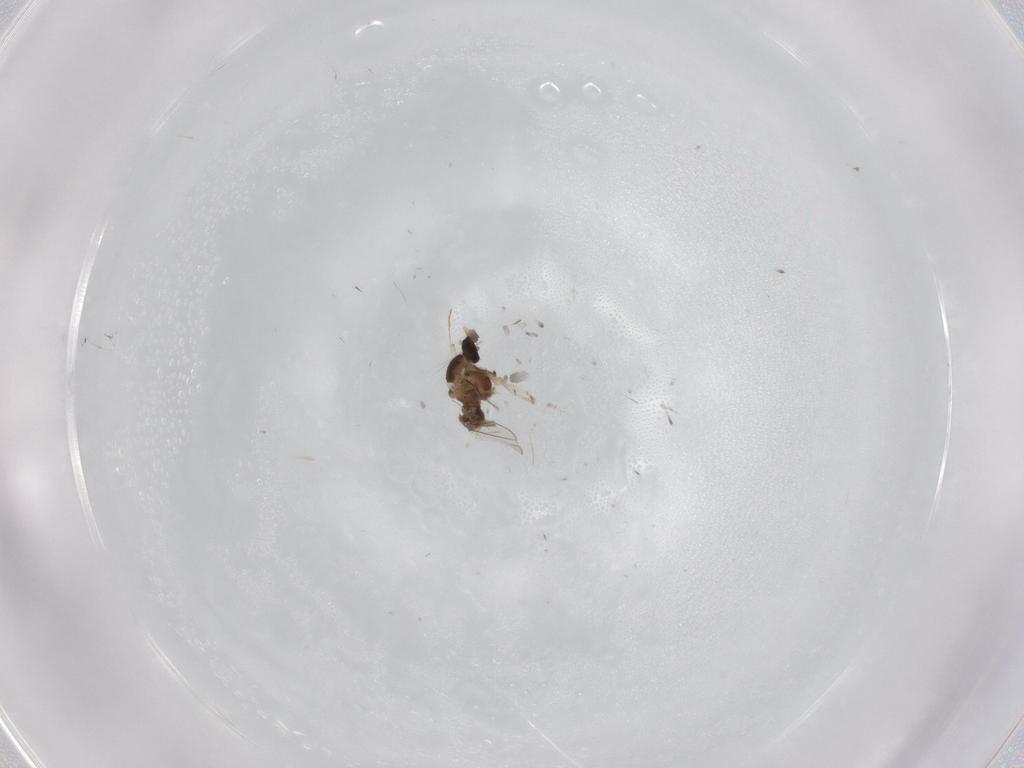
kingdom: Animalia
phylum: Arthropoda
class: Insecta
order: Diptera
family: Cecidomyiidae
